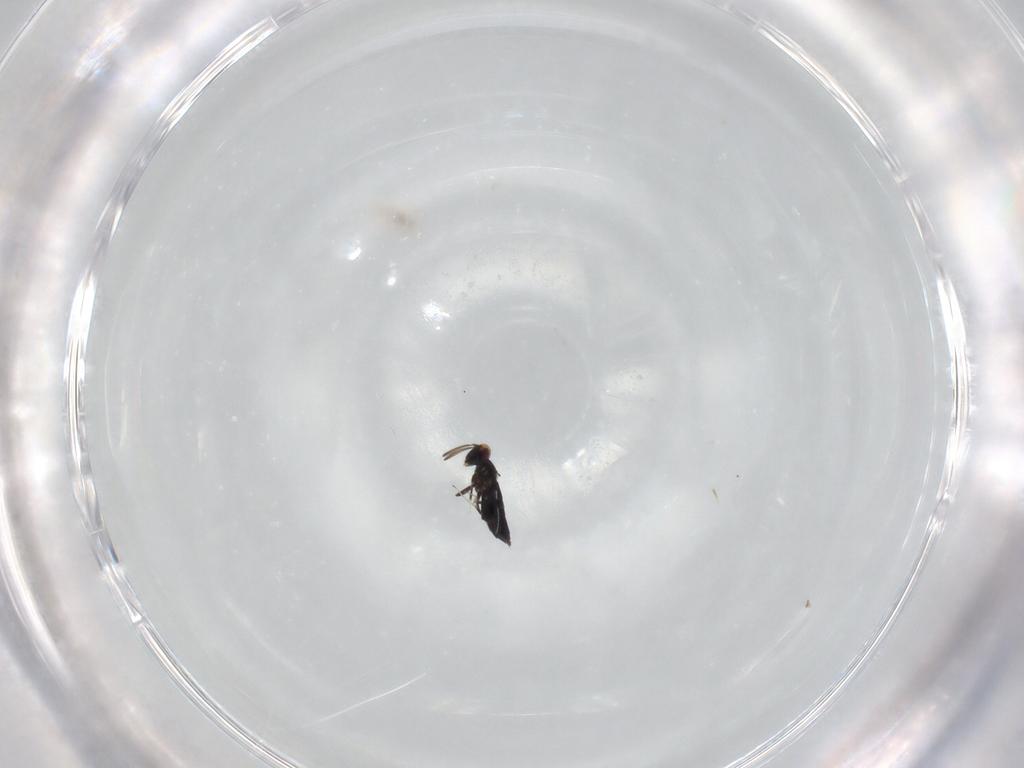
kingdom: Animalia
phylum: Arthropoda
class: Insecta
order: Hymenoptera
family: Signiphoridae
